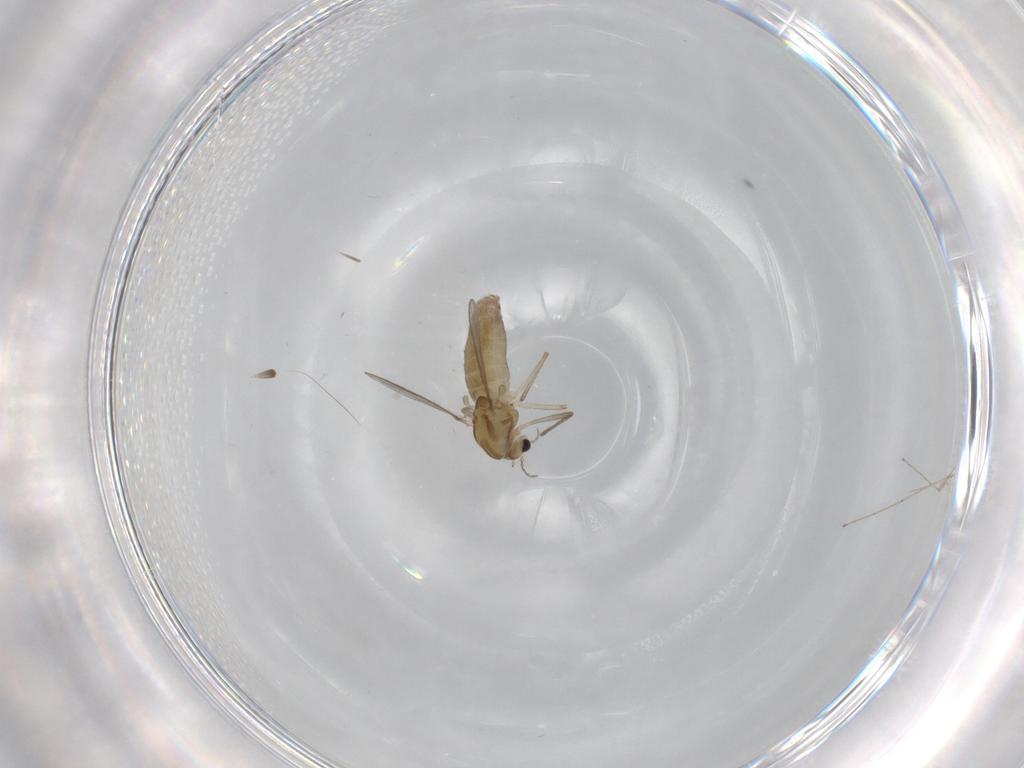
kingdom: Animalia
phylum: Arthropoda
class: Insecta
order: Diptera
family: Chironomidae
